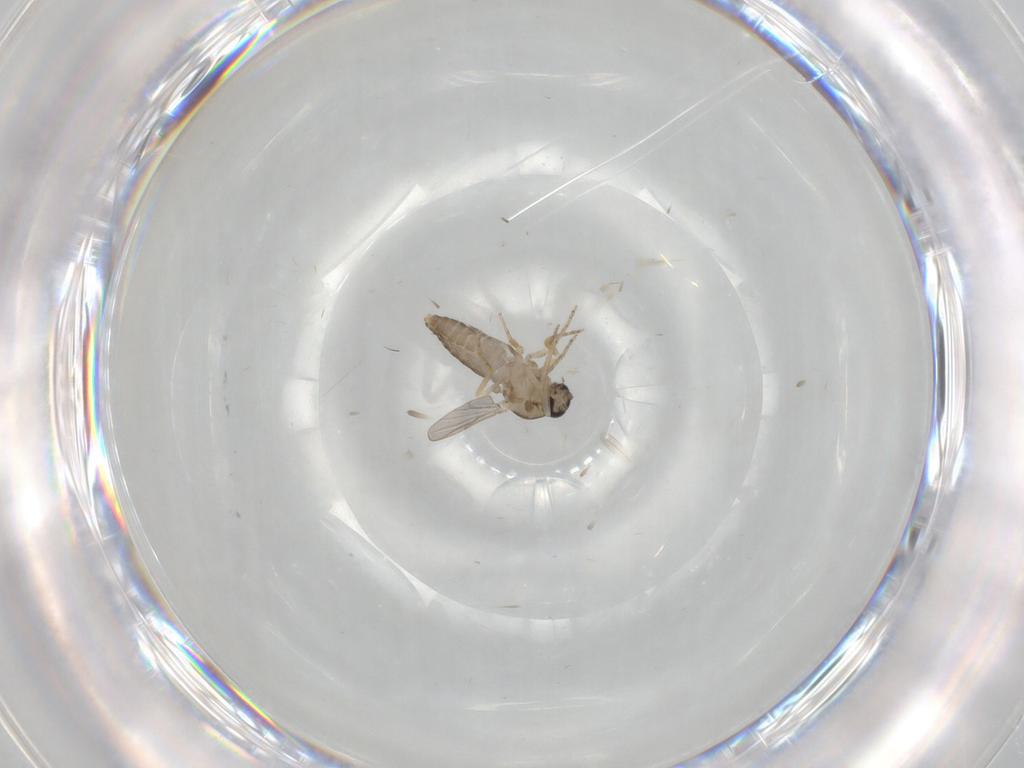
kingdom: Animalia
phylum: Arthropoda
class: Insecta
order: Diptera
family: Ceratopogonidae
